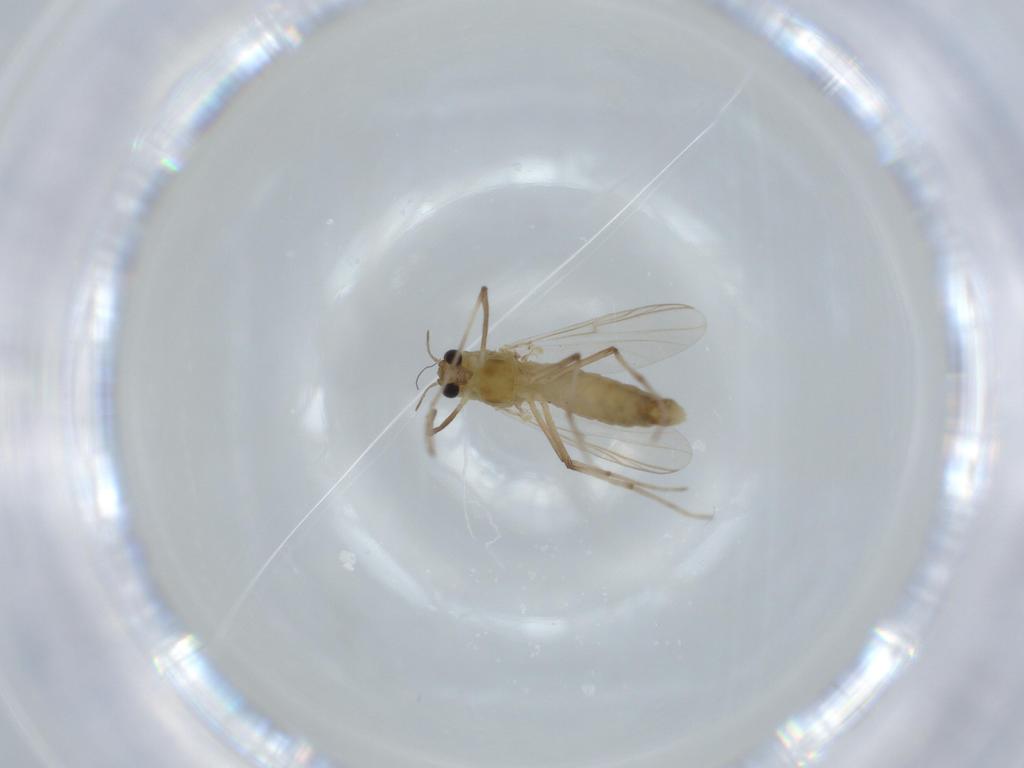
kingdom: Animalia
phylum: Arthropoda
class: Insecta
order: Diptera
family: Chironomidae
